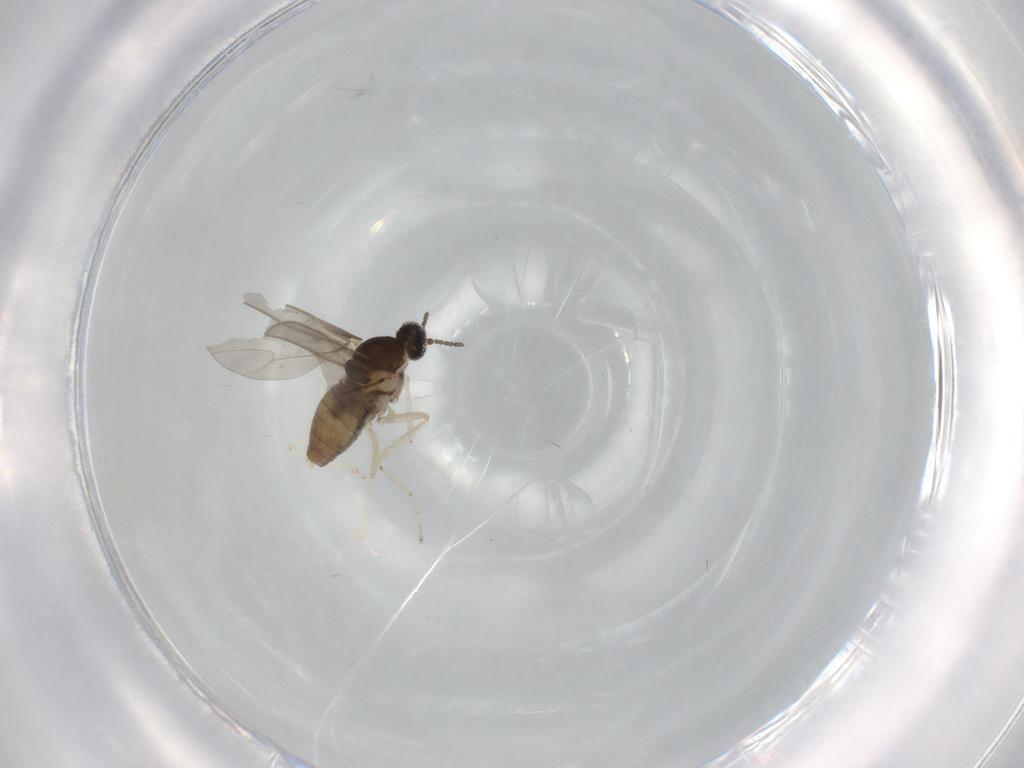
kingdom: Animalia
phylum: Arthropoda
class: Insecta
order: Diptera
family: Cecidomyiidae
